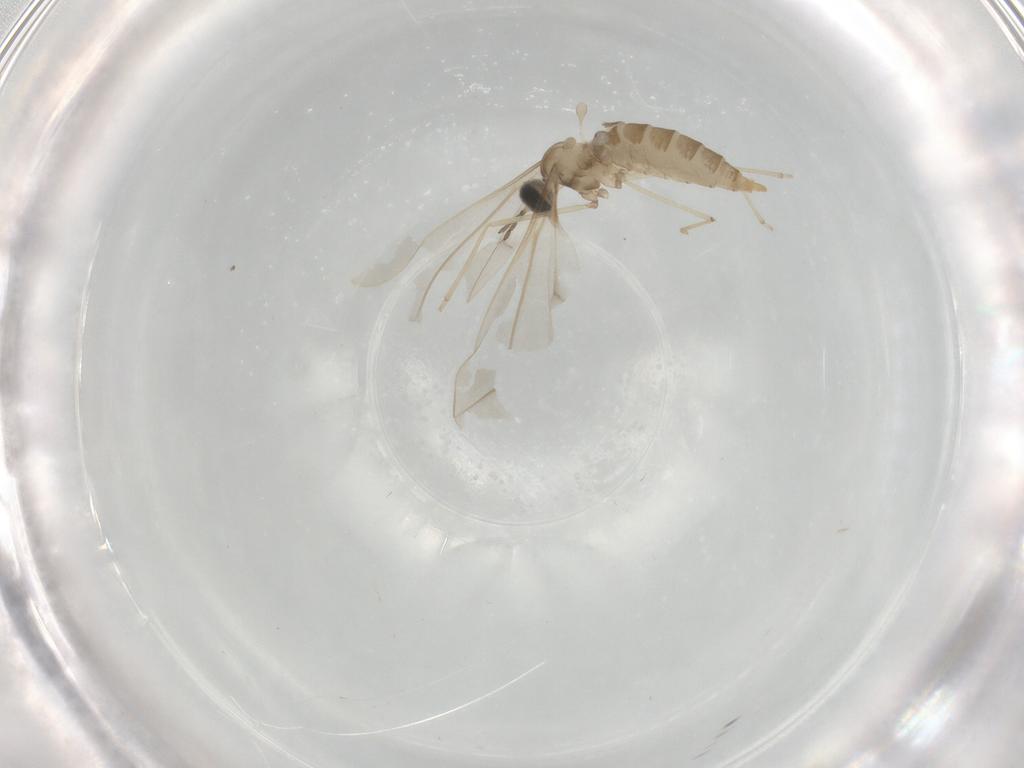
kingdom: Animalia
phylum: Arthropoda
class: Insecta
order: Diptera
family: Cecidomyiidae
